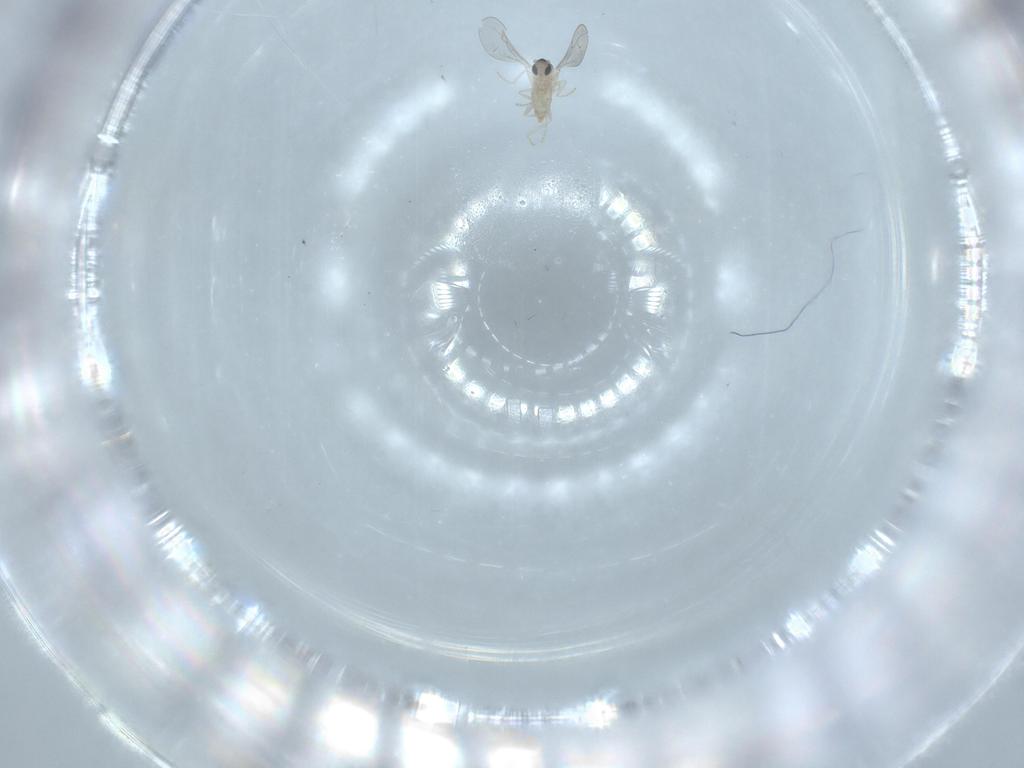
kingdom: Animalia
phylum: Arthropoda
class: Insecta
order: Diptera
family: Cecidomyiidae
